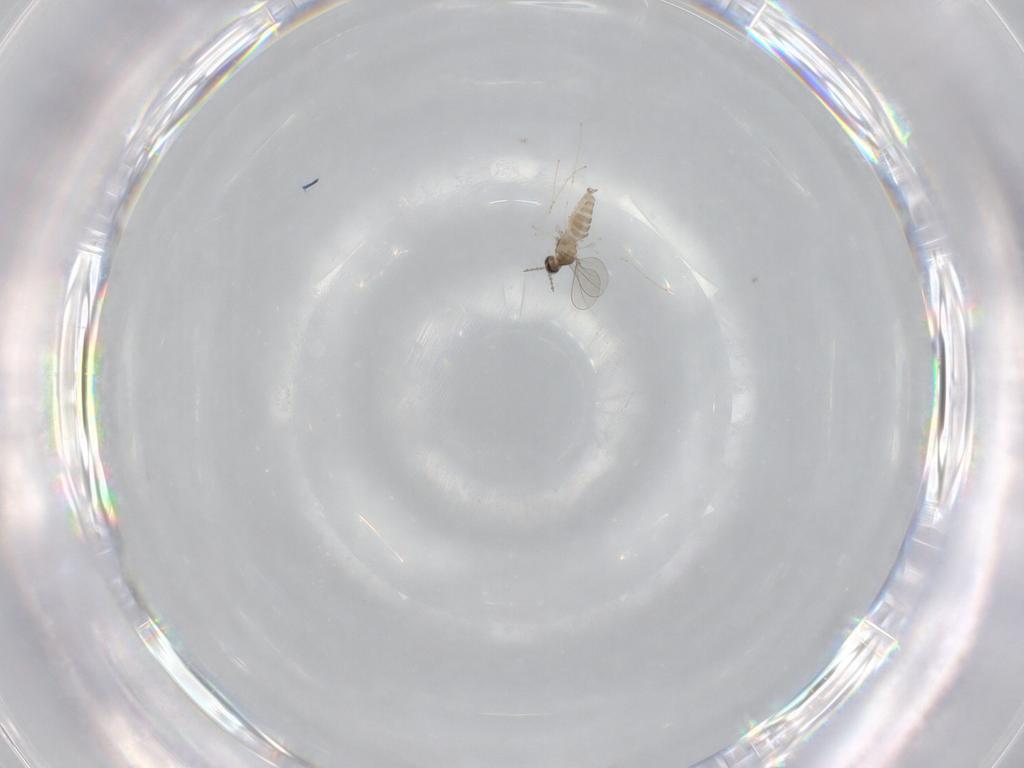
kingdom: Animalia
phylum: Arthropoda
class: Insecta
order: Diptera
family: Cecidomyiidae
